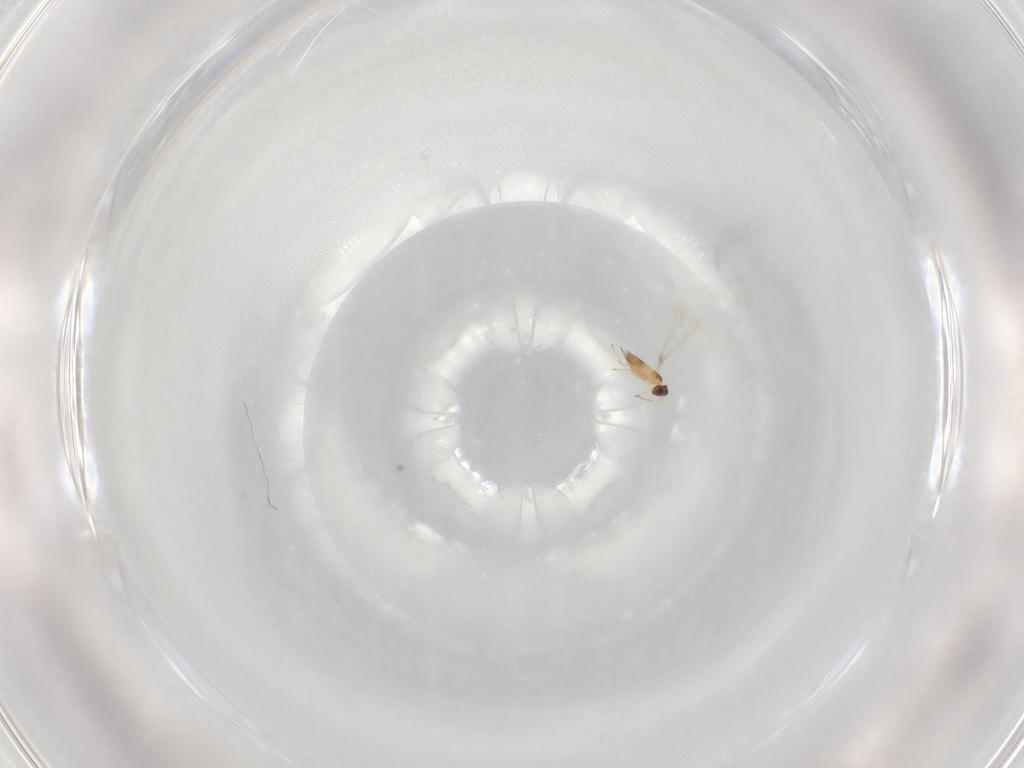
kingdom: Animalia
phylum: Arthropoda
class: Insecta
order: Hymenoptera
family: Mymaridae
